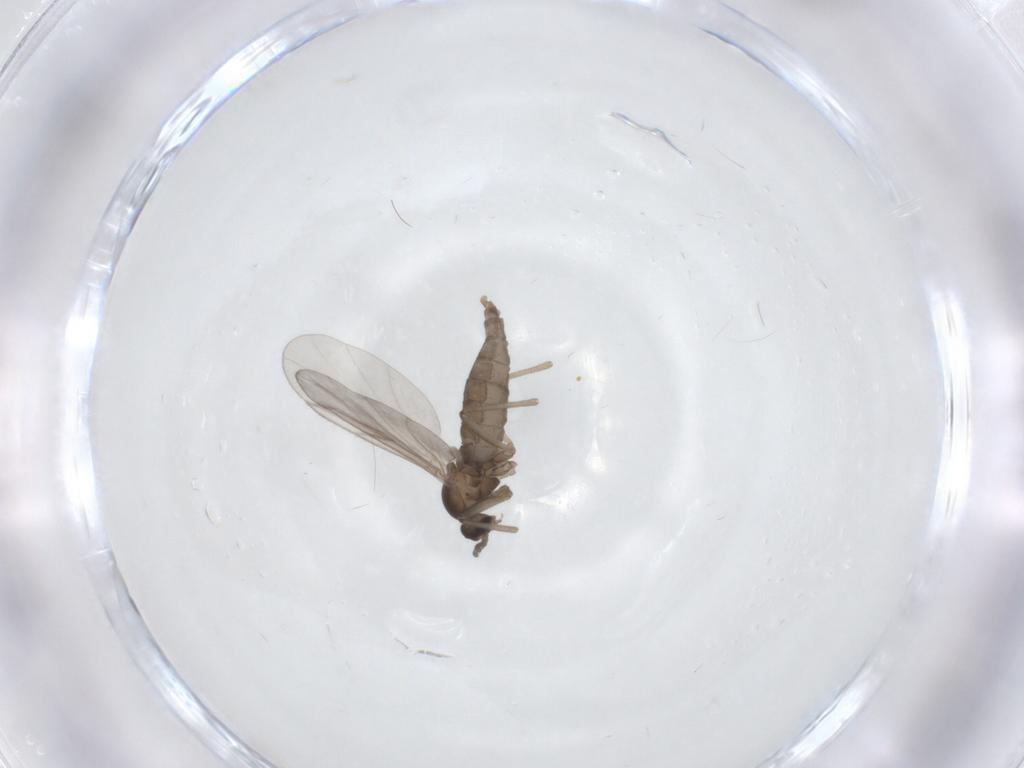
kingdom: Animalia
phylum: Arthropoda
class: Insecta
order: Diptera
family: Cecidomyiidae
